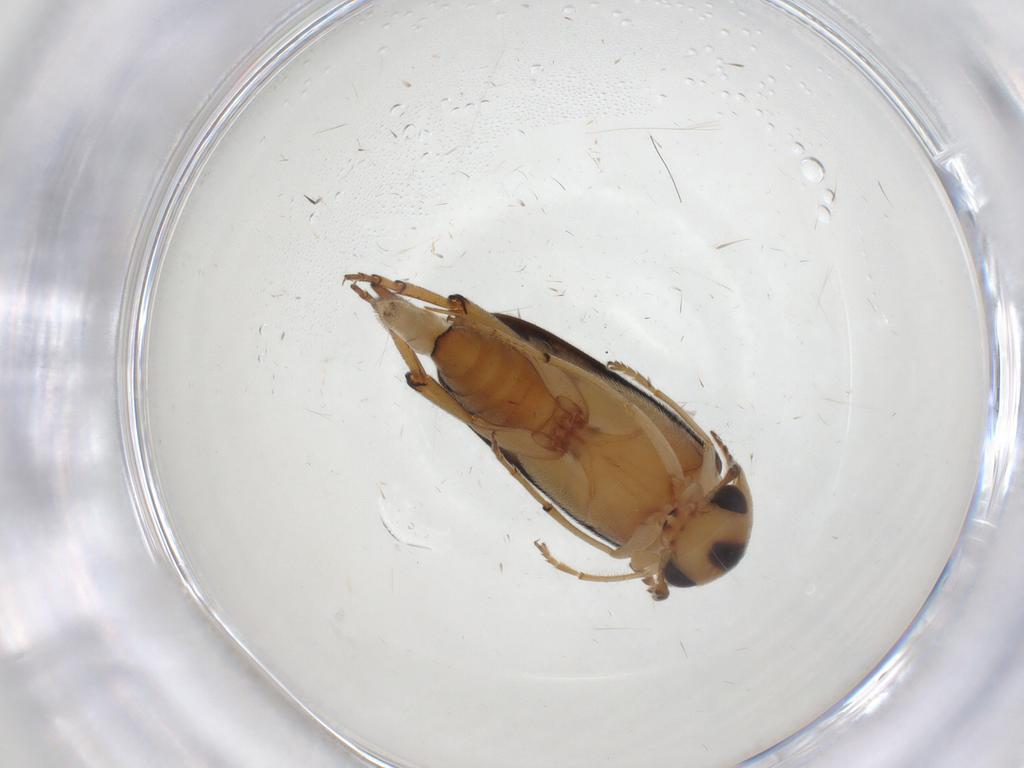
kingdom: Animalia
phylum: Arthropoda
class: Insecta
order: Coleoptera
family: Mordellidae
